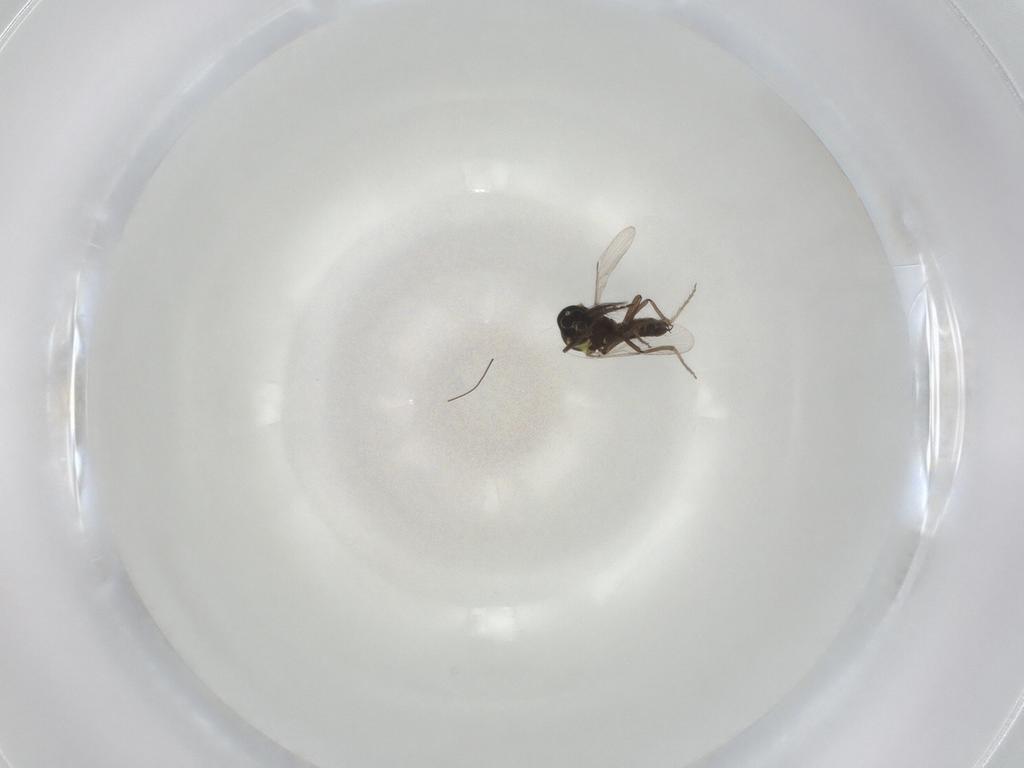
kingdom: Animalia
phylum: Arthropoda
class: Insecta
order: Diptera
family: Ceratopogonidae
